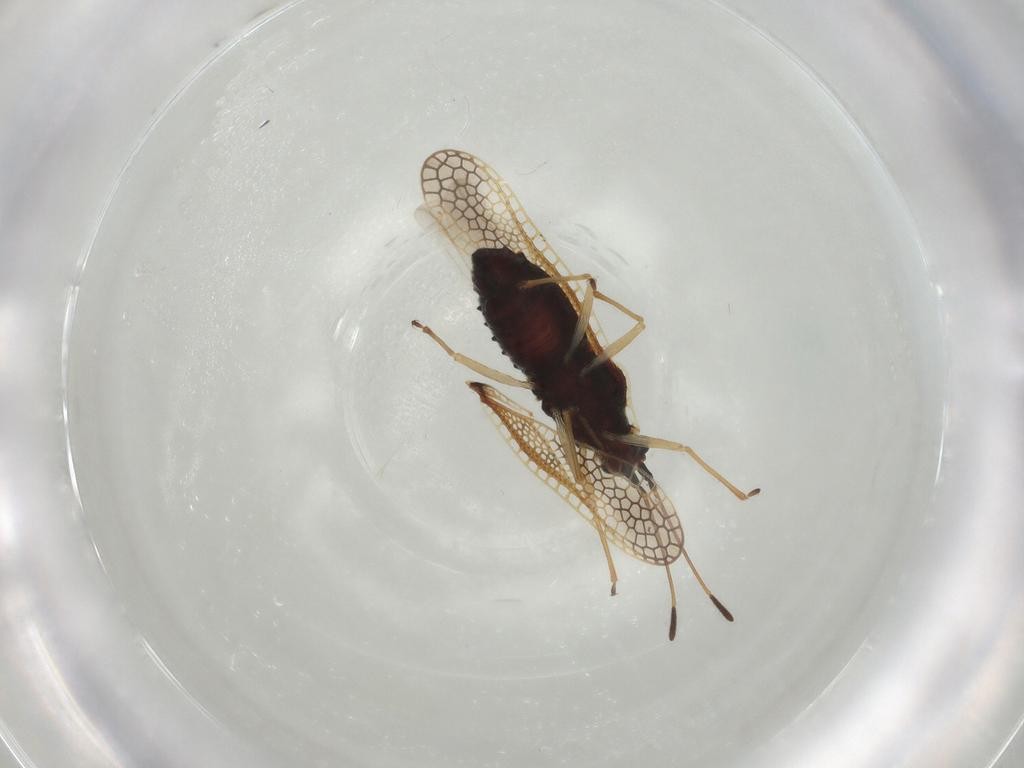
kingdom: Animalia
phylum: Arthropoda
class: Insecta
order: Hemiptera
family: Tingidae
